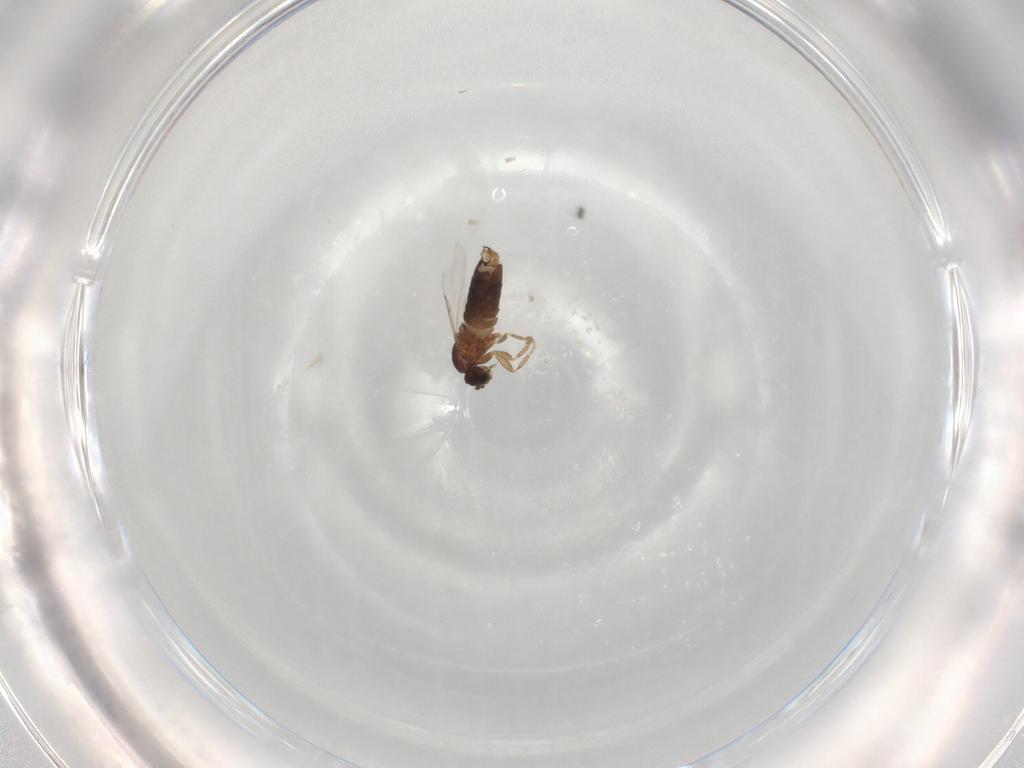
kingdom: Animalia
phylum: Arthropoda
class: Insecta
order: Diptera
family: Scatopsidae
